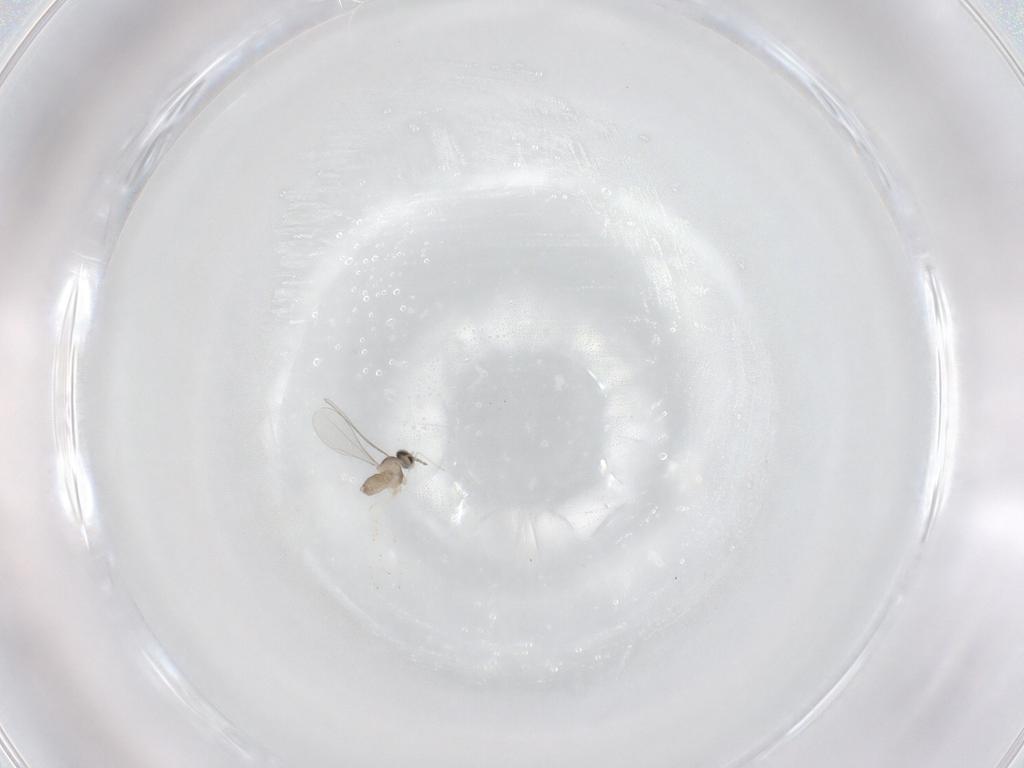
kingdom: Animalia
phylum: Arthropoda
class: Insecta
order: Diptera
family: Cecidomyiidae
